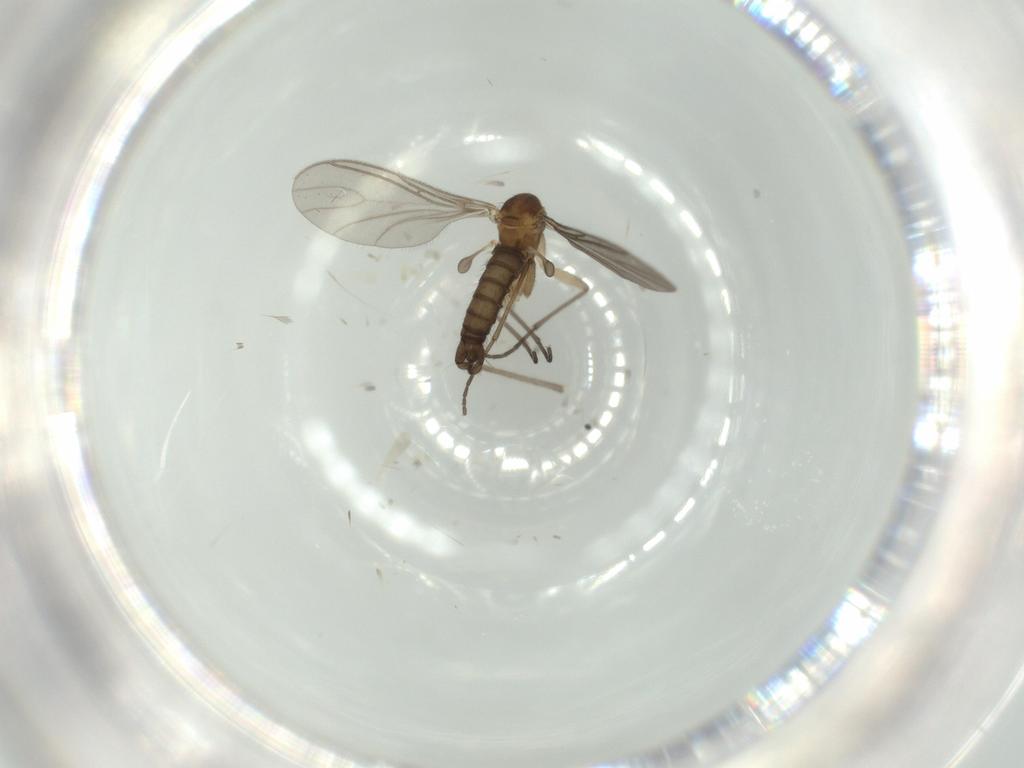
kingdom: Animalia
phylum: Arthropoda
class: Insecta
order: Diptera
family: Sciaridae
